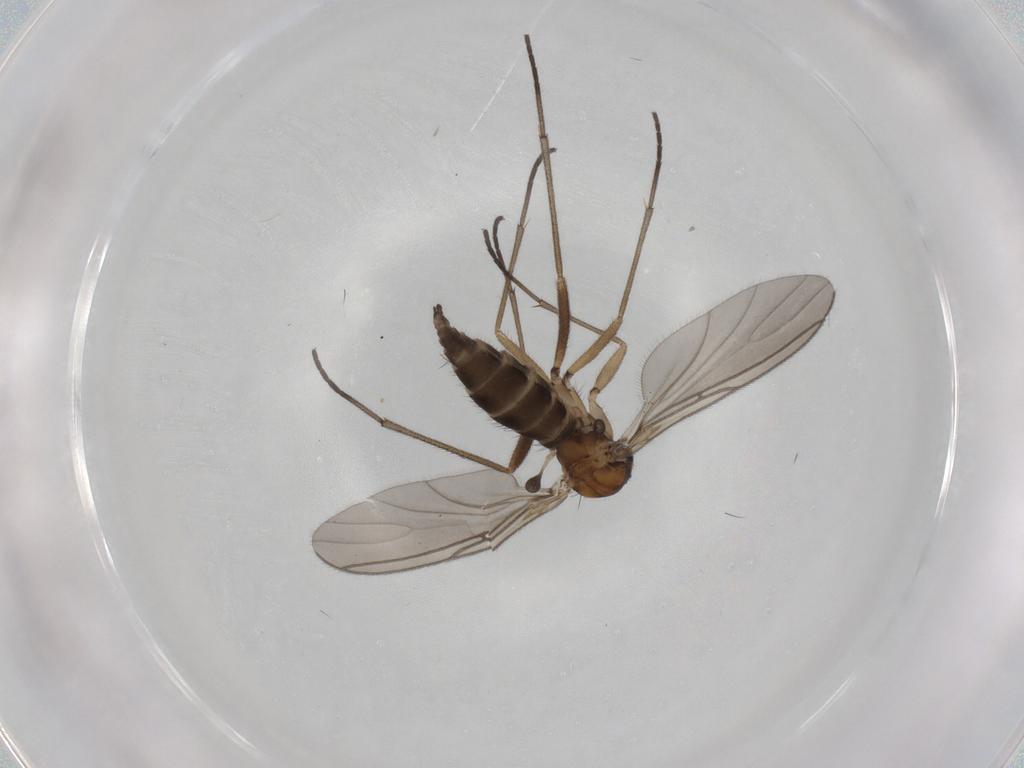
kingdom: Animalia
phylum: Arthropoda
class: Insecta
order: Diptera
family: Sciaridae
